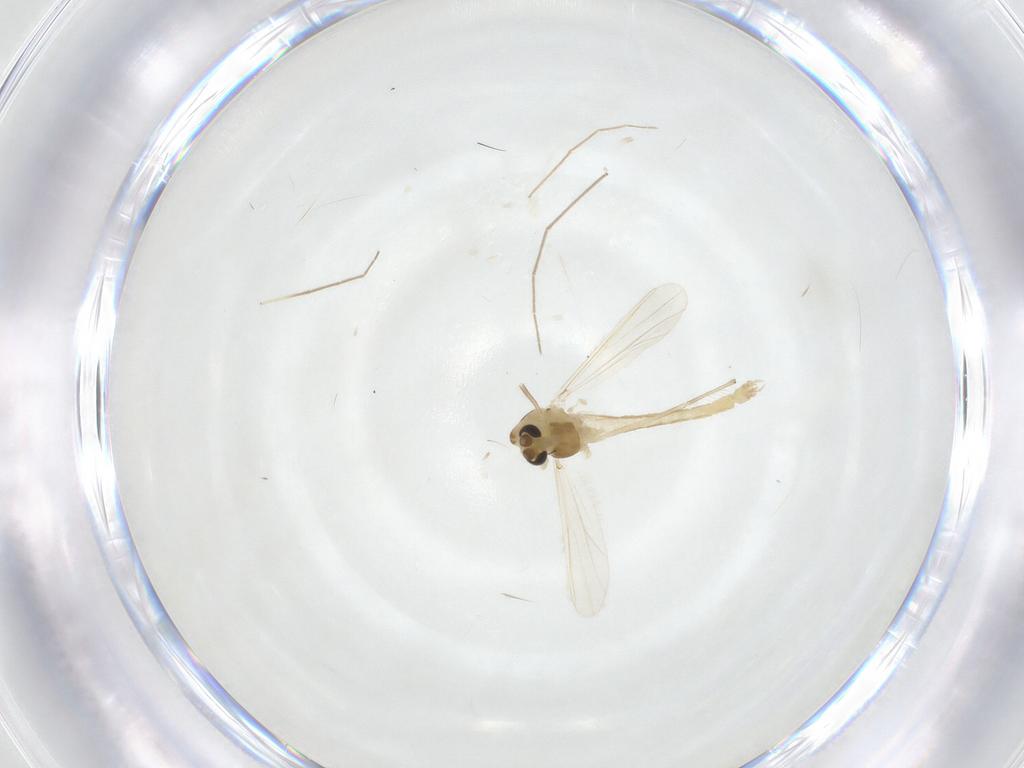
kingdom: Animalia
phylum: Arthropoda
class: Insecta
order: Diptera
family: Chironomidae
